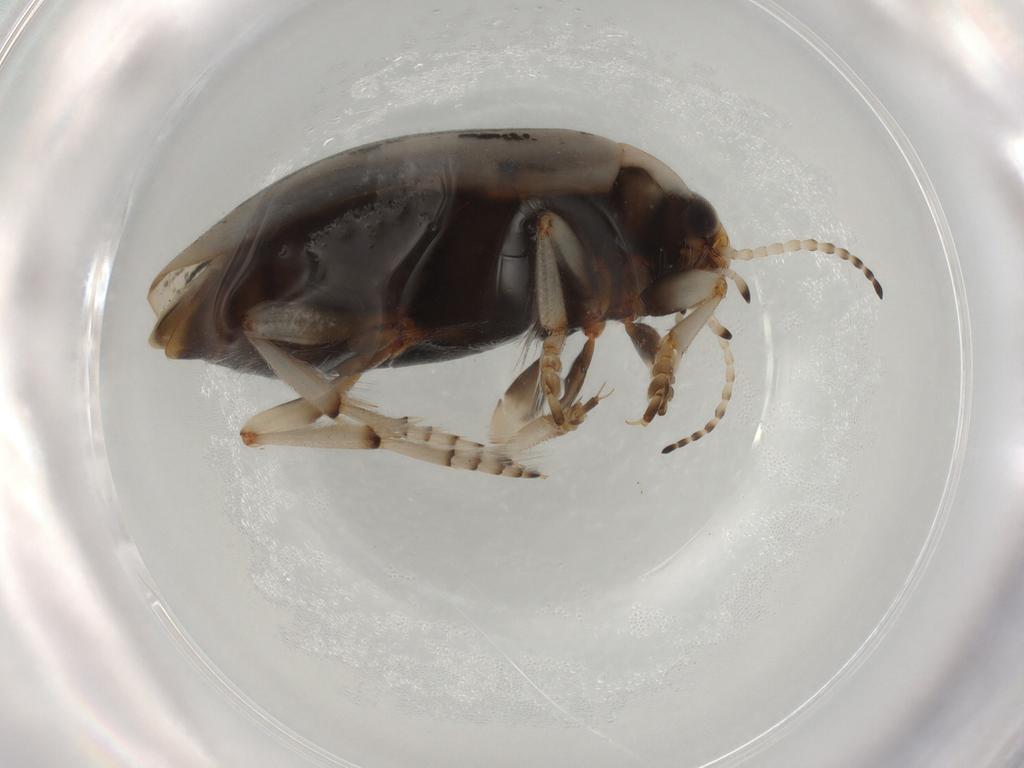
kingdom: Animalia
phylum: Arthropoda
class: Insecta
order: Coleoptera
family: Dytiscidae
